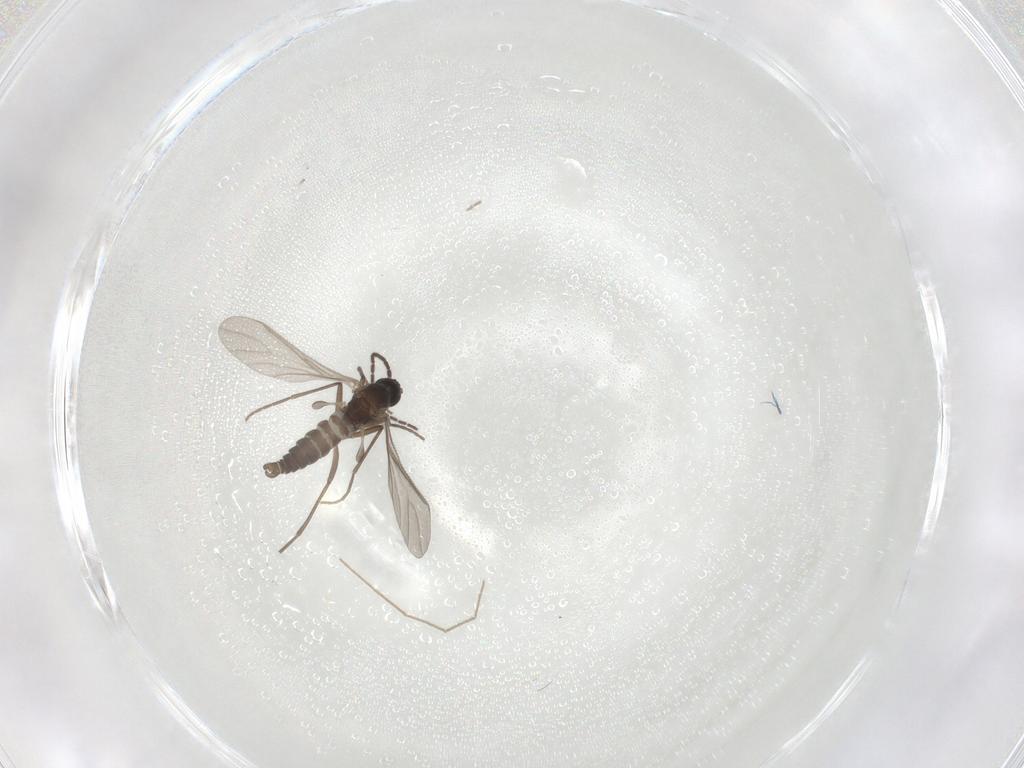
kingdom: Animalia
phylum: Arthropoda
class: Insecta
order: Diptera
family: Sciaridae
